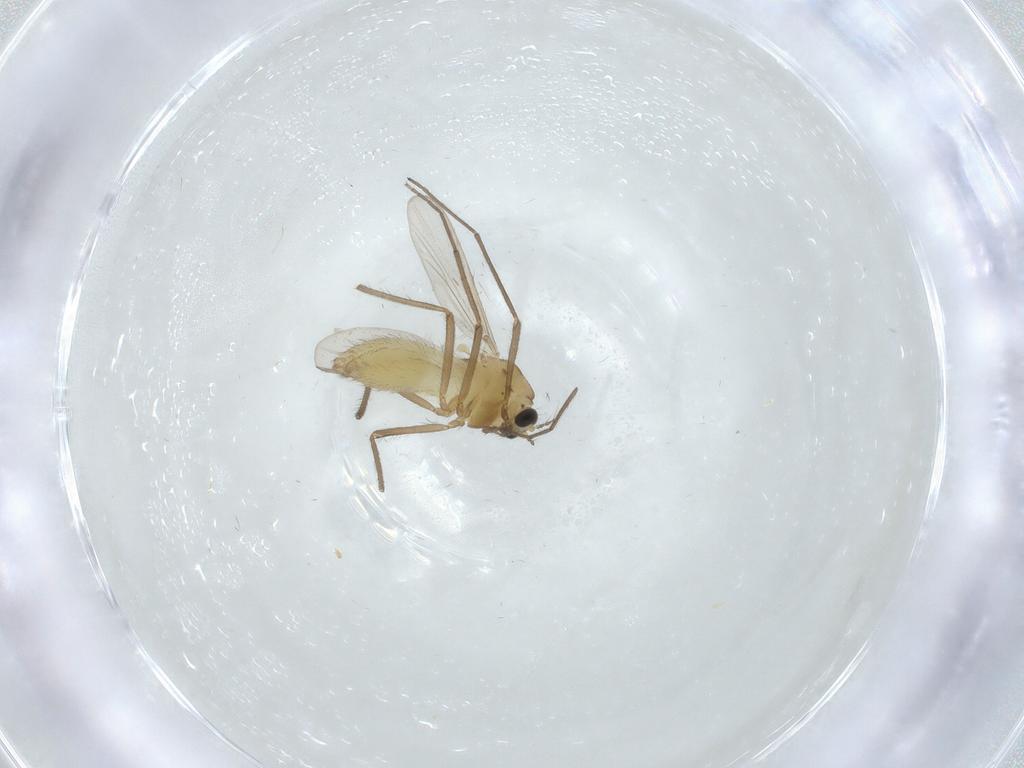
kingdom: Animalia
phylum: Arthropoda
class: Insecta
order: Diptera
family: Chironomidae
